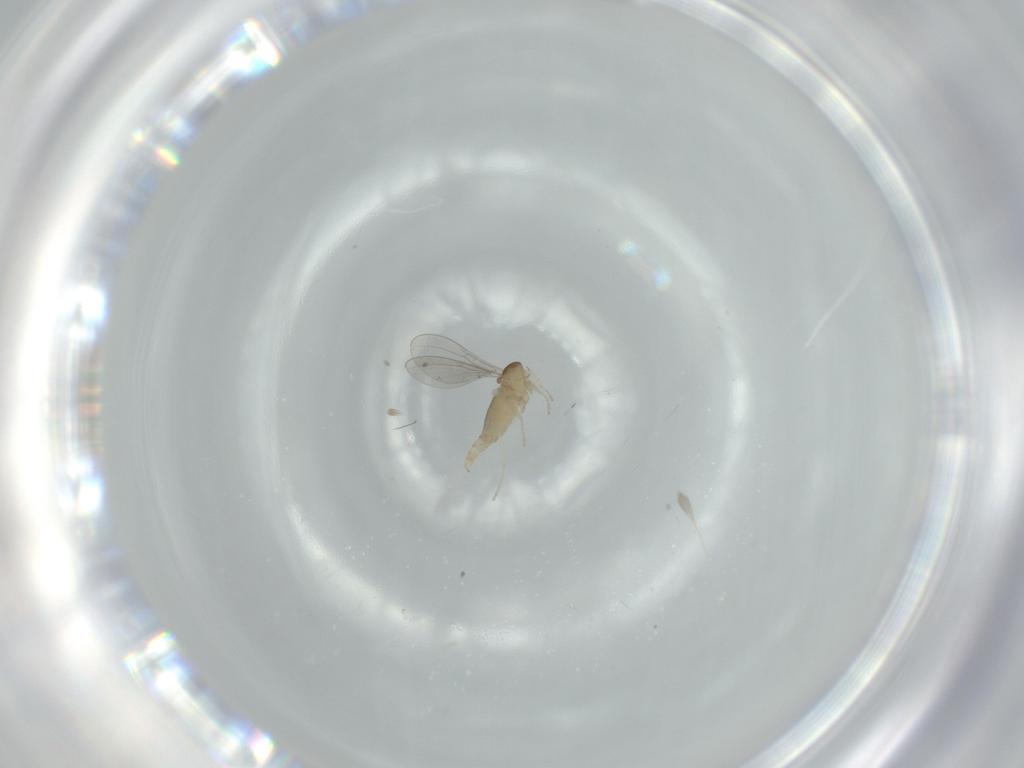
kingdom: Animalia
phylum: Arthropoda
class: Insecta
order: Diptera
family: Cecidomyiidae
